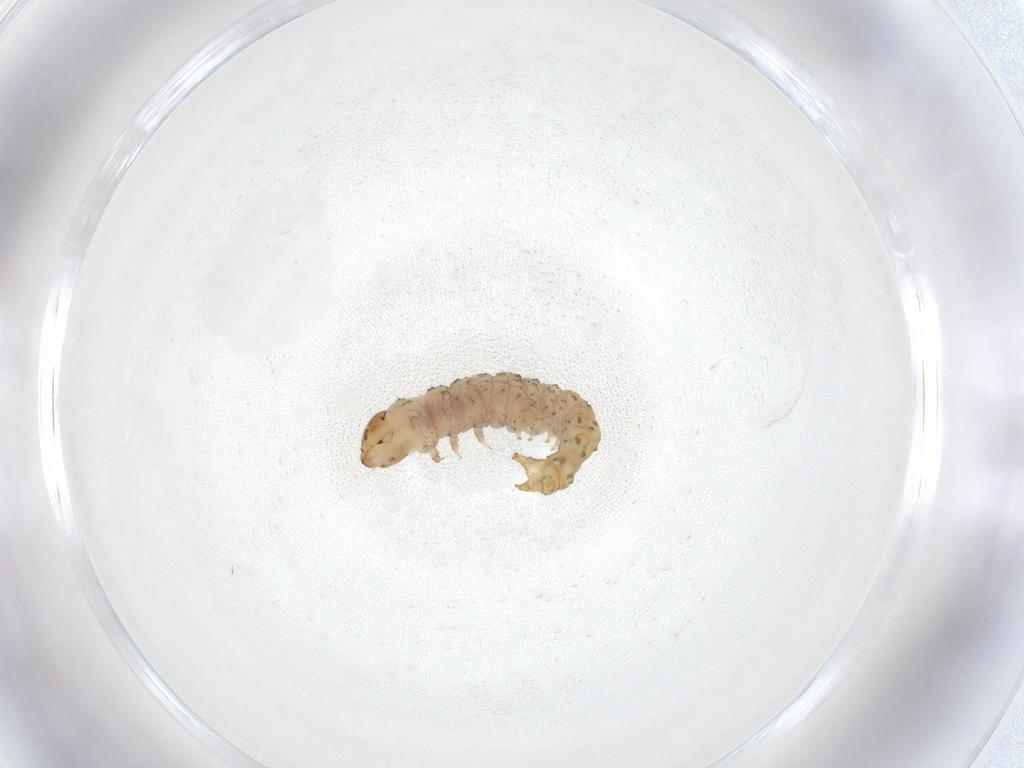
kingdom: Animalia
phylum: Arthropoda
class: Insecta
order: Lepidoptera
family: Choreutidae
